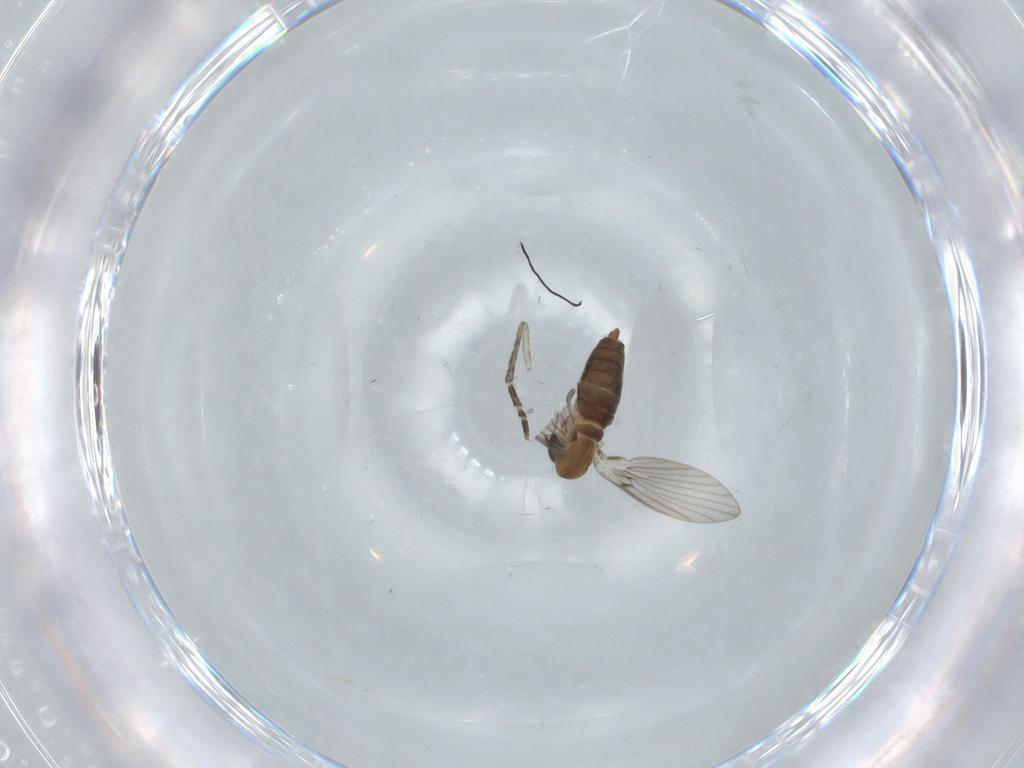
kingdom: Animalia
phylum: Arthropoda
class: Insecta
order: Diptera
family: Psychodidae
